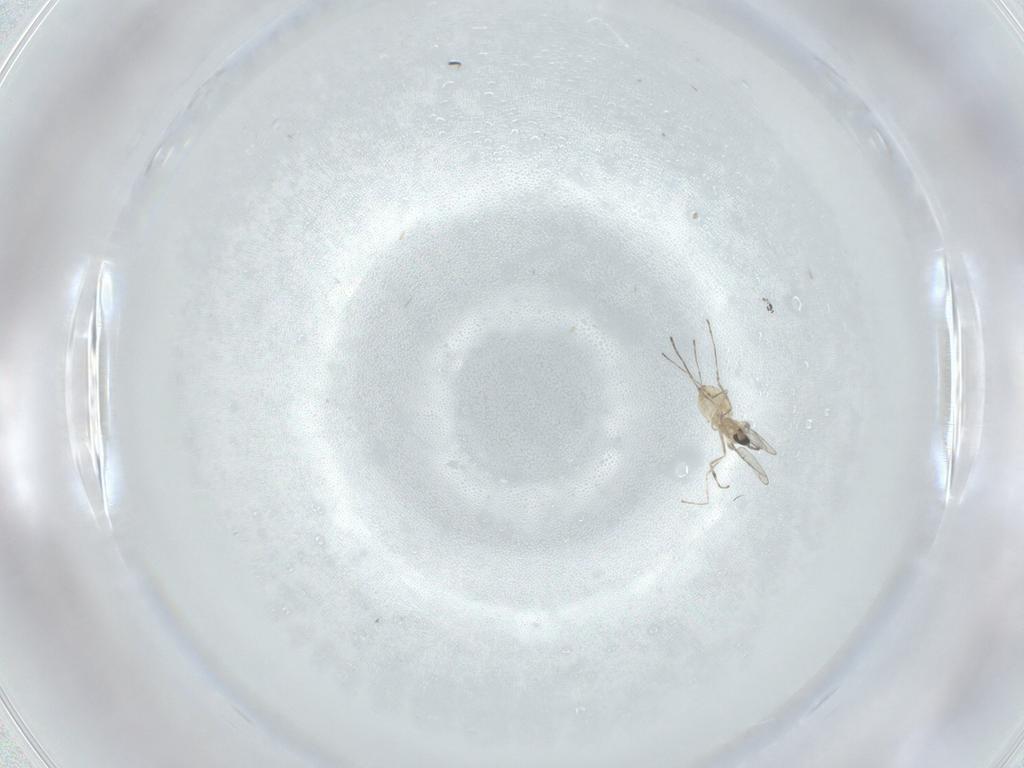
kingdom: Animalia
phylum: Arthropoda
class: Insecta
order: Diptera
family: Cecidomyiidae
